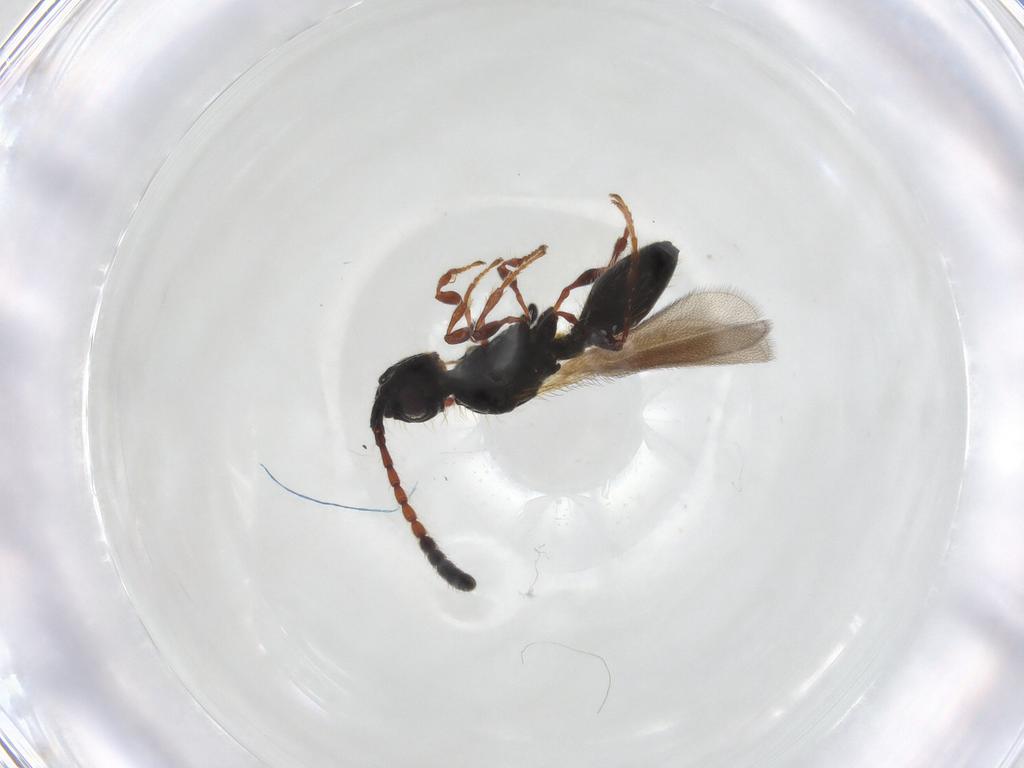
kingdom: Animalia
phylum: Arthropoda
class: Insecta
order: Hymenoptera
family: Diapriidae
